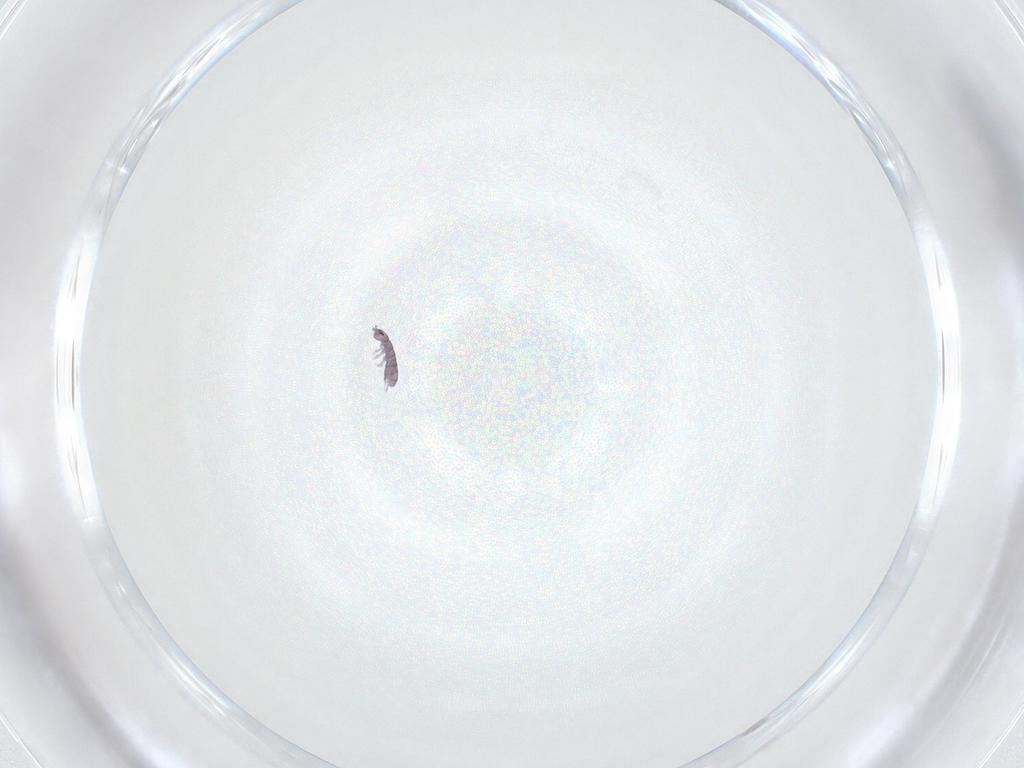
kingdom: Animalia
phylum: Arthropoda
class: Collembola
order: Entomobryomorpha
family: Isotomidae
